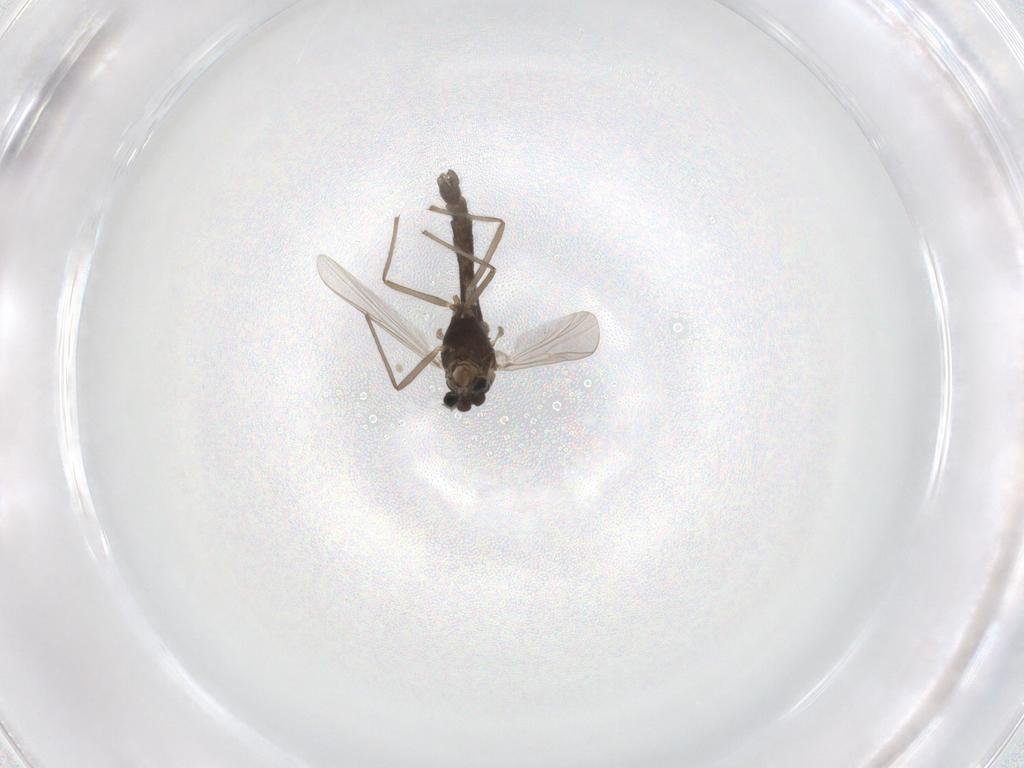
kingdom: Animalia
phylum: Arthropoda
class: Insecta
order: Diptera
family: Chironomidae
